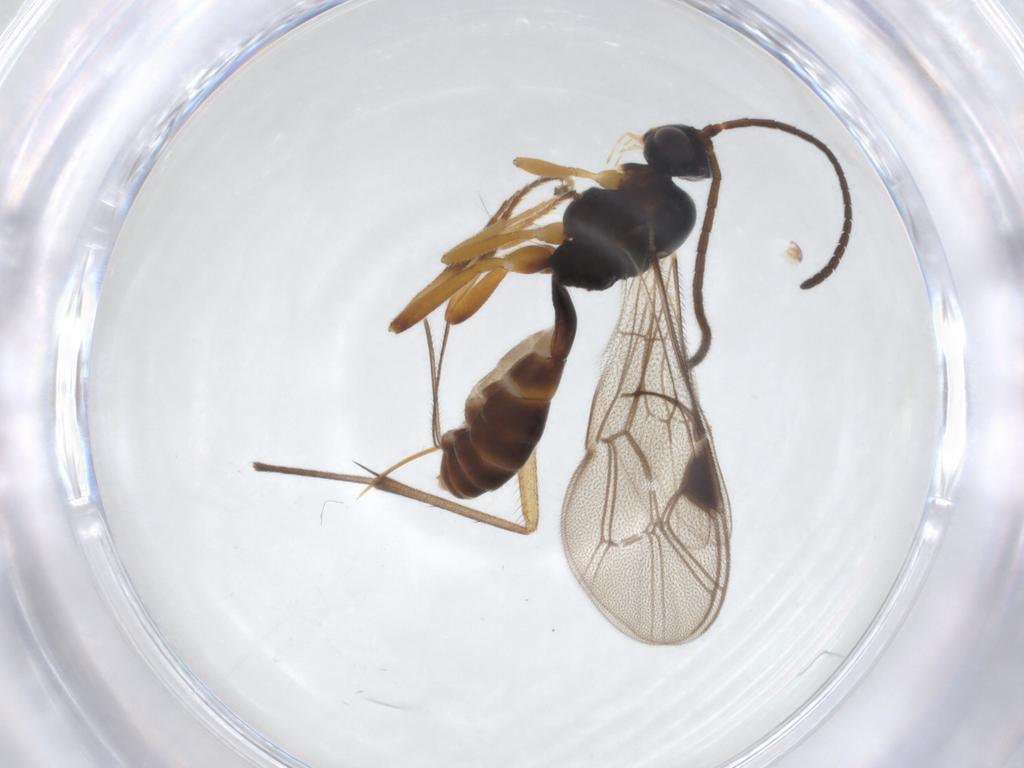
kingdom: Animalia
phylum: Arthropoda
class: Insecta
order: Hymenoptera
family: Ichneumonidae
